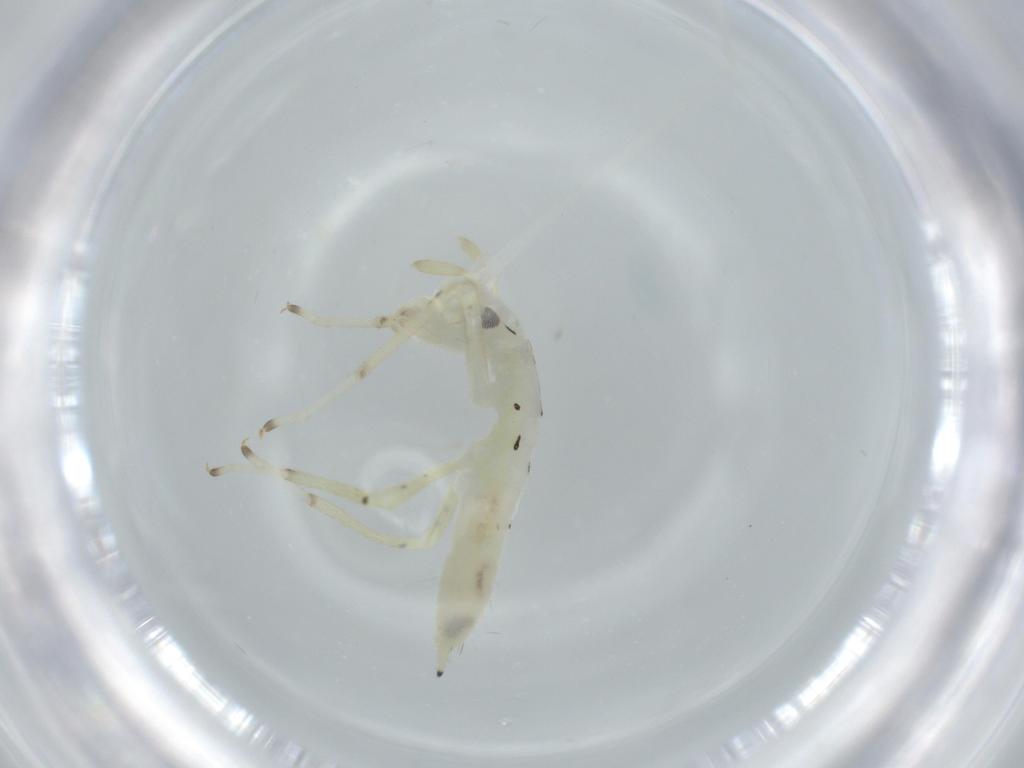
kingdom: Animalia
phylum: Arthropoda
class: Insecta
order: Orthoptera
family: Oecanthidae
